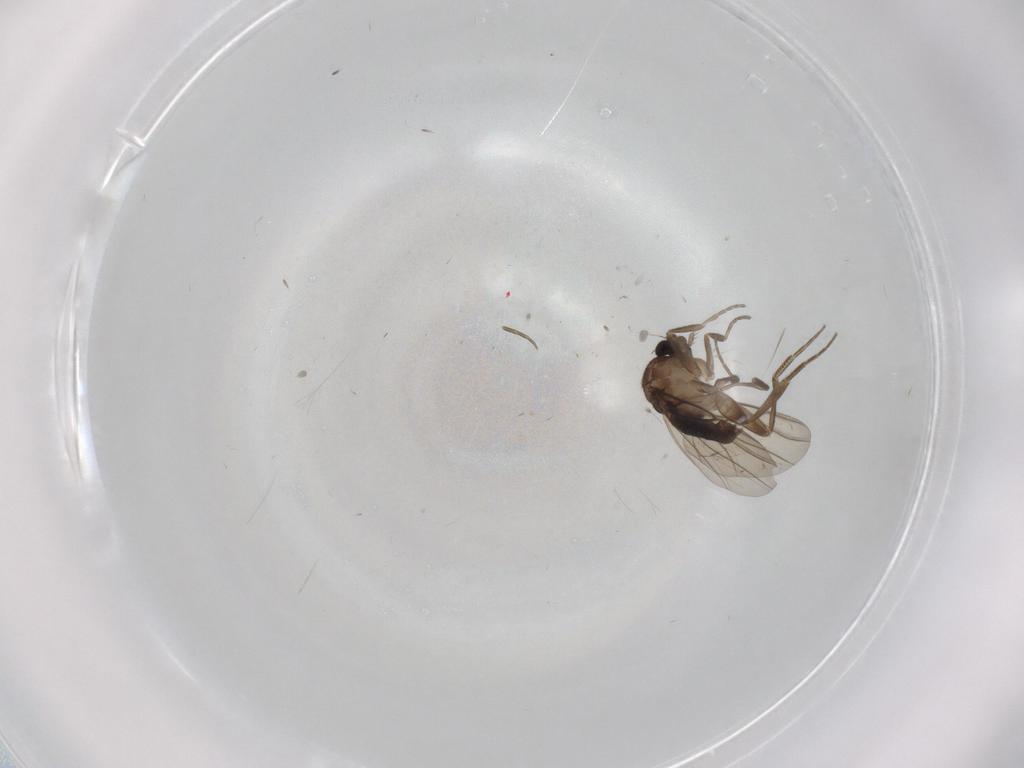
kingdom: Animalia
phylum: Arthropoda
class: Insecta
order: Diptera
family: Phoridae
